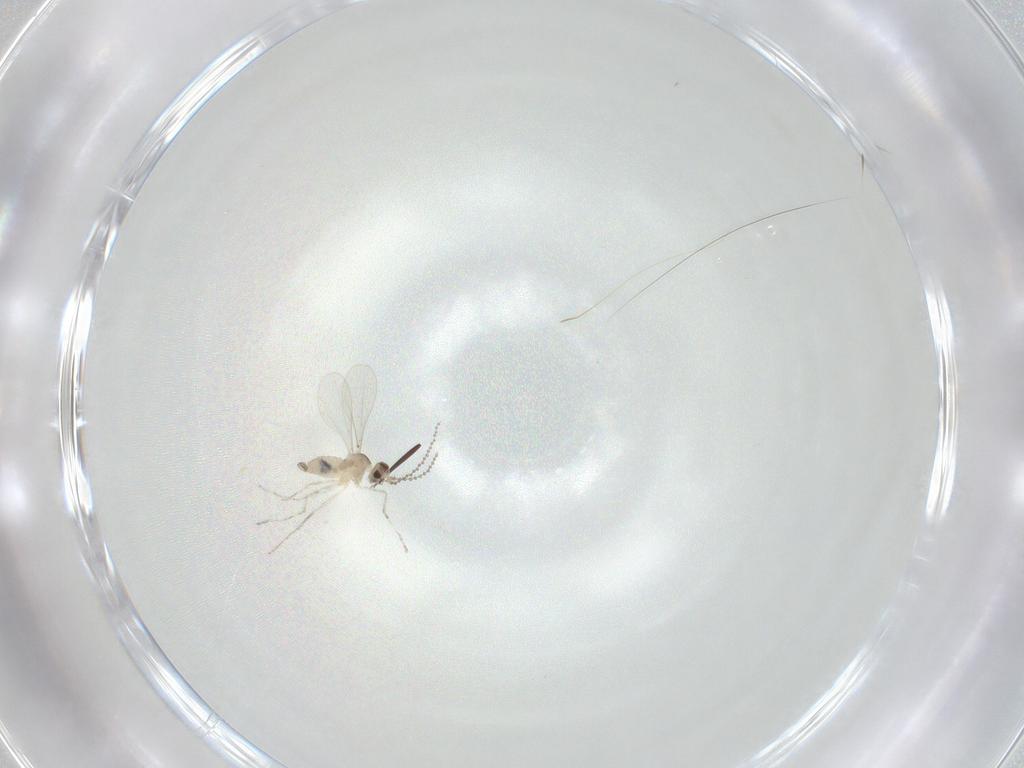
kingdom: Animalia
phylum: Arthropoda
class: Insecta
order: Diptera
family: Cecidomyiidae
